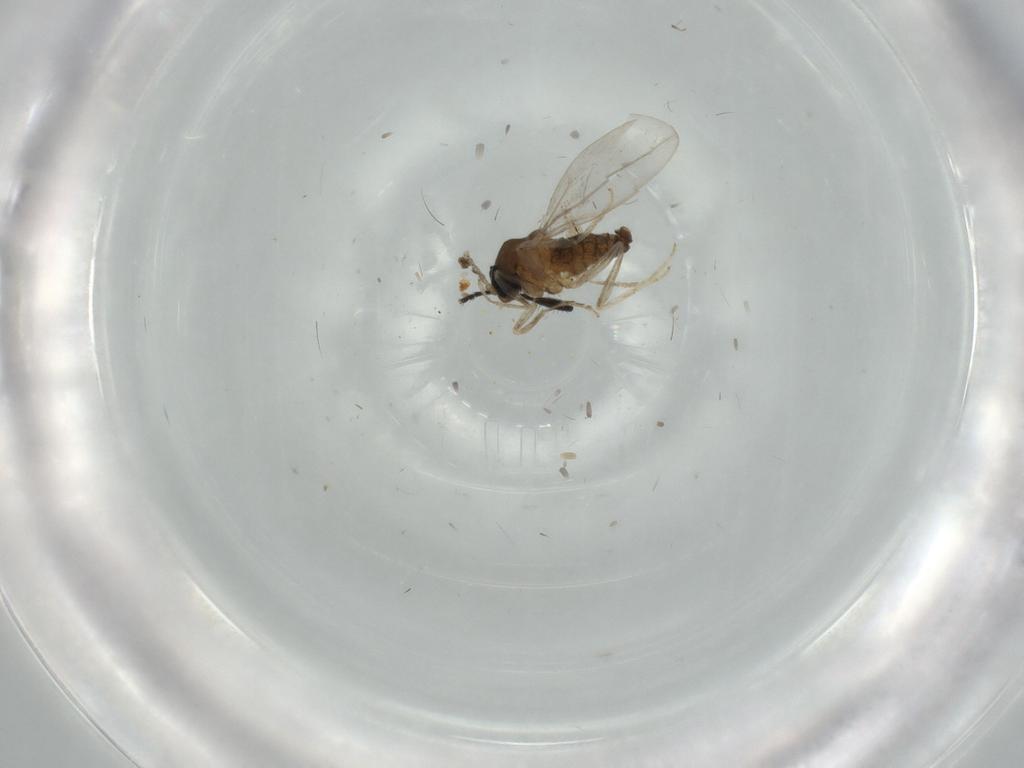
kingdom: Animalia
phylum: Arthropoda
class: Insecta
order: Diptera
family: Cecidomyiidae
